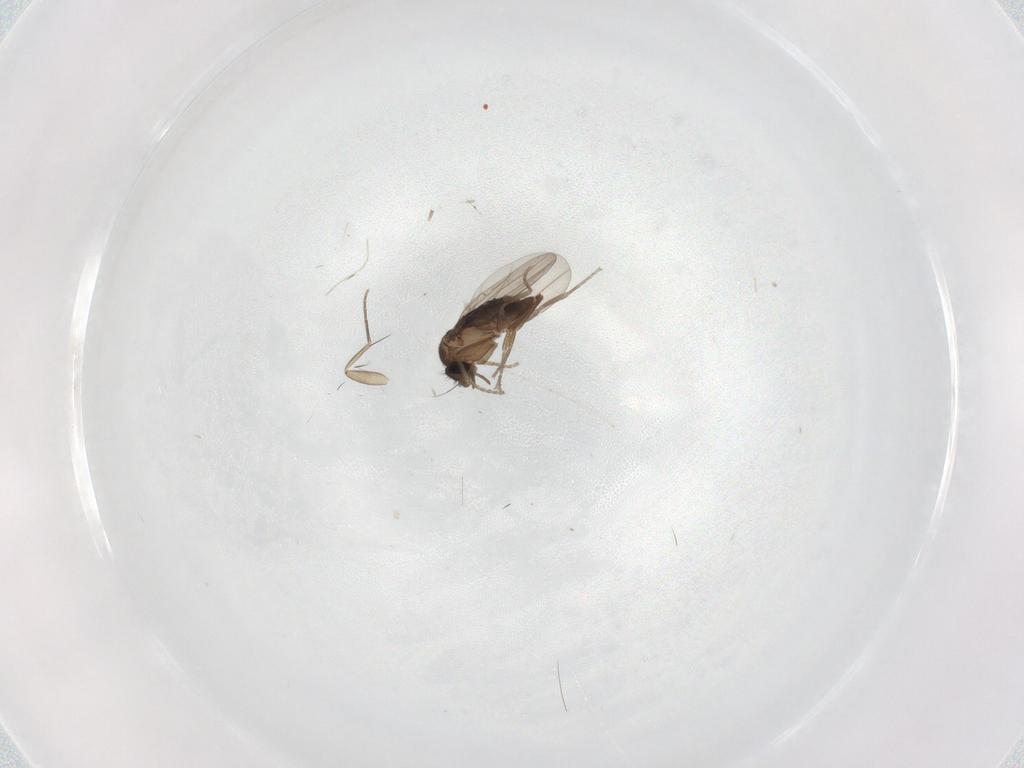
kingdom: Animalia
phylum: Arthropoda
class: Insecta
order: Diptera
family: Phoridae
